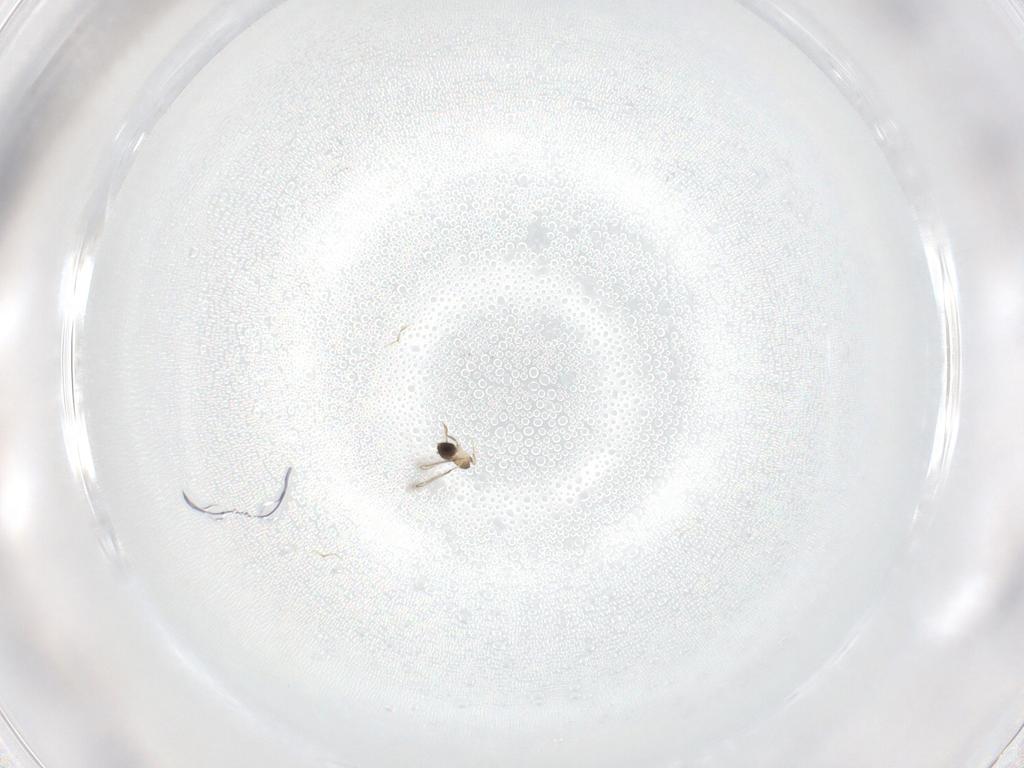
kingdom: Animalia
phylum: Arthropoda
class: Insecta
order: Hymenoptera
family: Mymaridae
